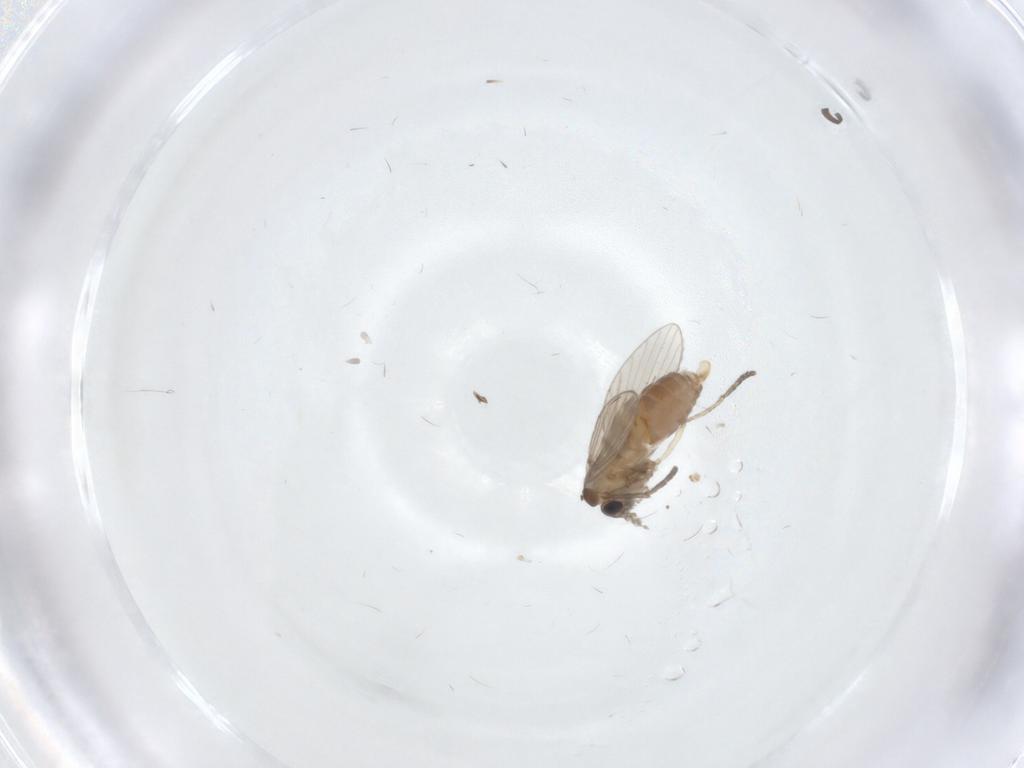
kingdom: Animalia
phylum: Arthropoda
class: Insecta
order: Diptera
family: Psychodidae
